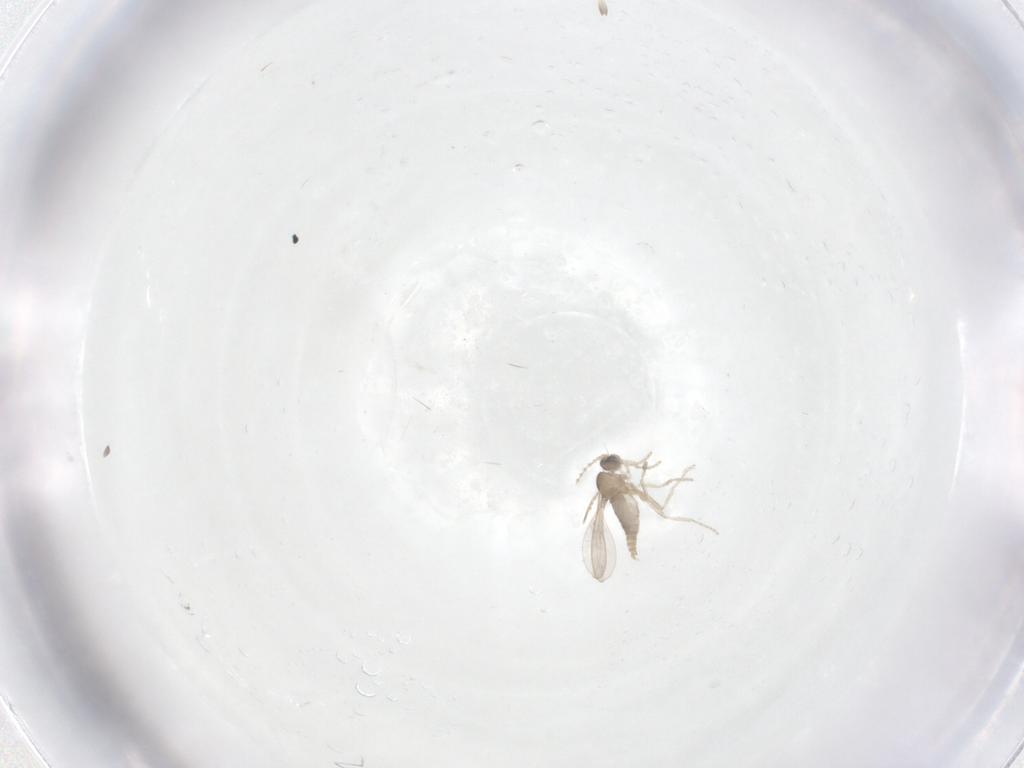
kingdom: Animalia
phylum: Arthropoda
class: Insecta
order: Diptera
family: Cecidomyiidae
